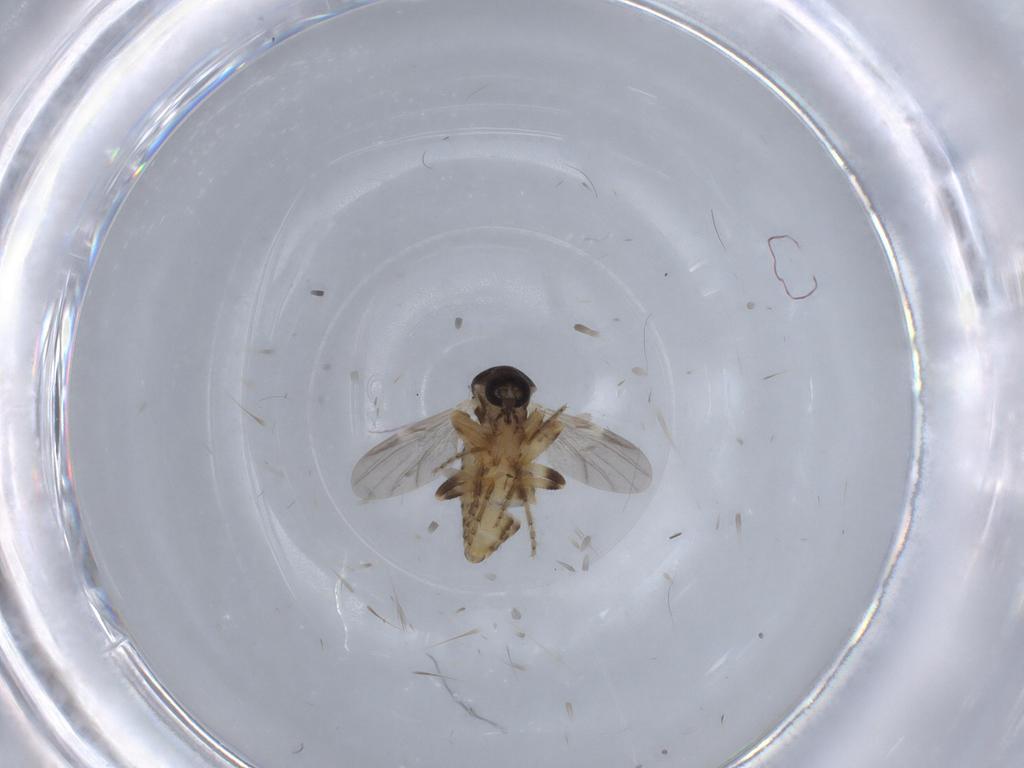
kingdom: Animalia
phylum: Arthropoda
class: Insecta
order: Diptera
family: Ceratopogonidae
